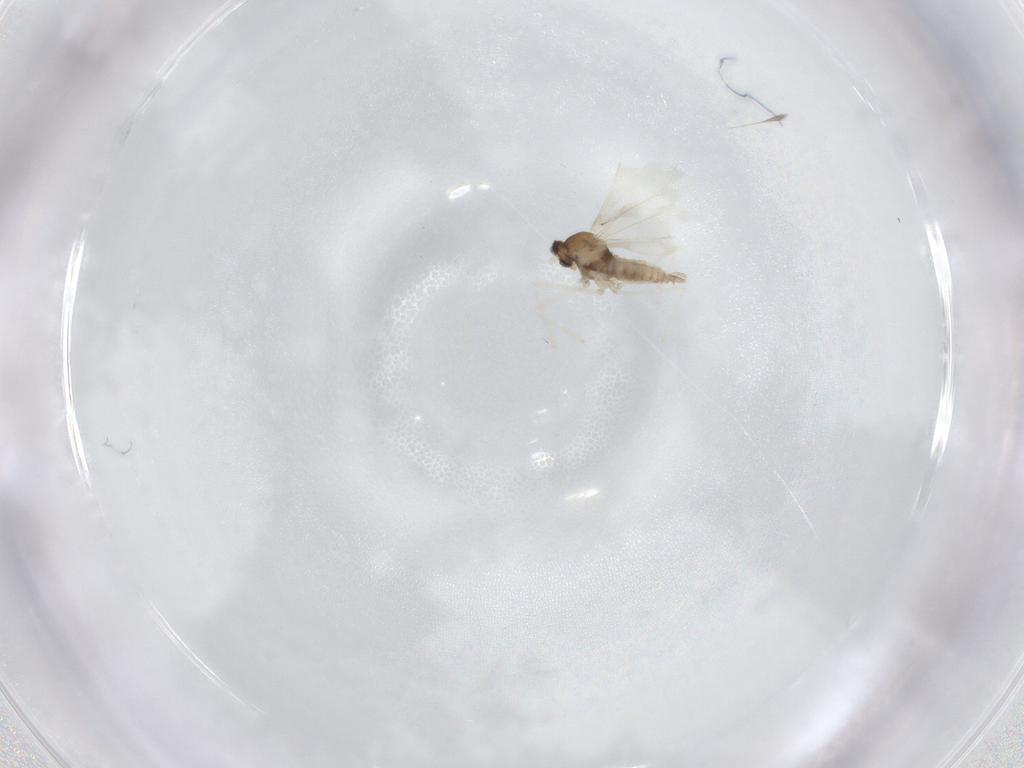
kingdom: Animalia
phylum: Arthropoda
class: Insecta
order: Diptera
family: Cecidomyiidae
